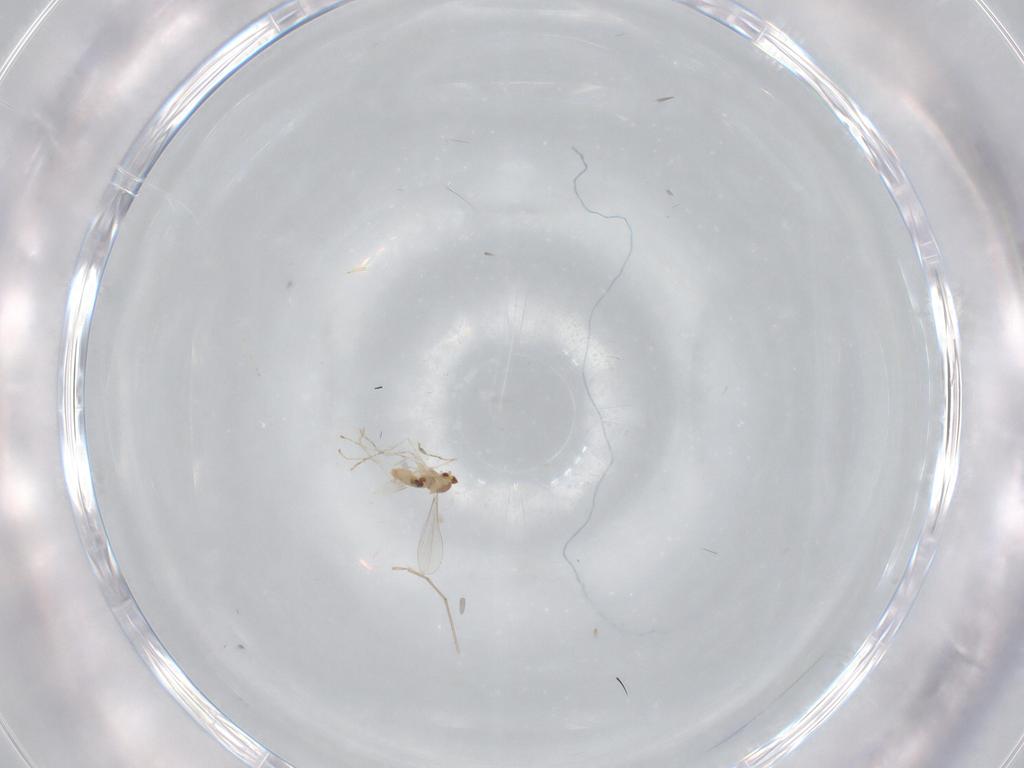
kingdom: Animalia
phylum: Arthropoda
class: Insecta
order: Diptera
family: Cecidomyiidae
